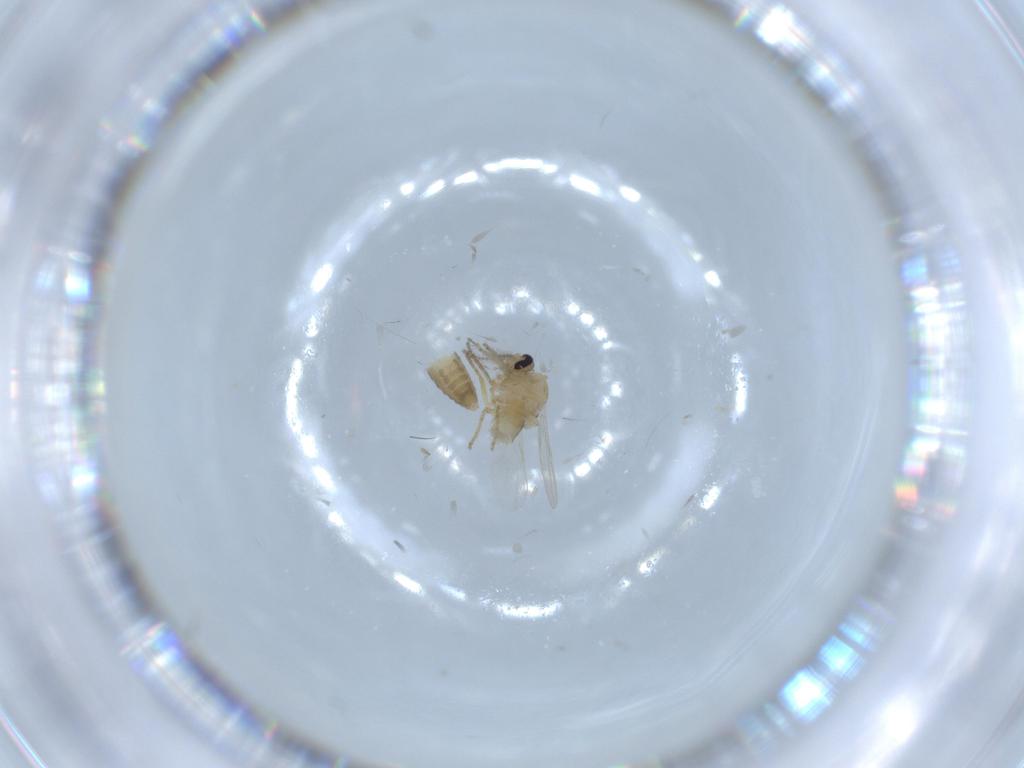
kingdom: Animalia
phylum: Arthropoda
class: Insecta
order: Diptera
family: Ceratopogonidae
